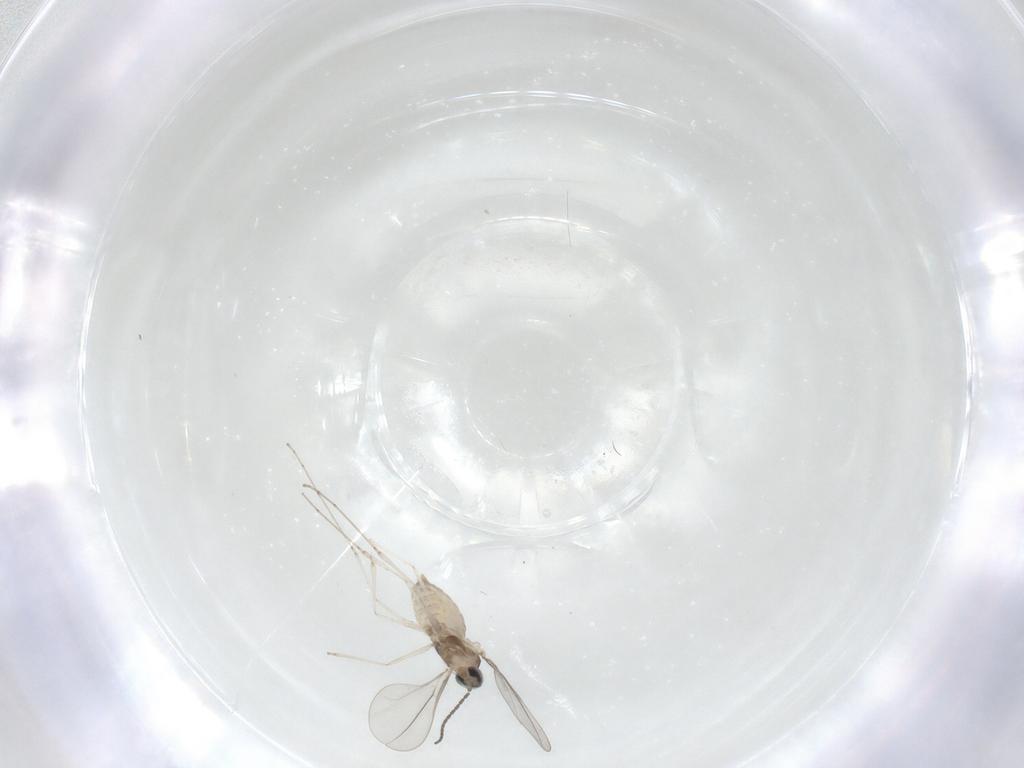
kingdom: Animalia
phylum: Arthropoda
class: Insecta
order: Diptera
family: Cecidomyiidae
